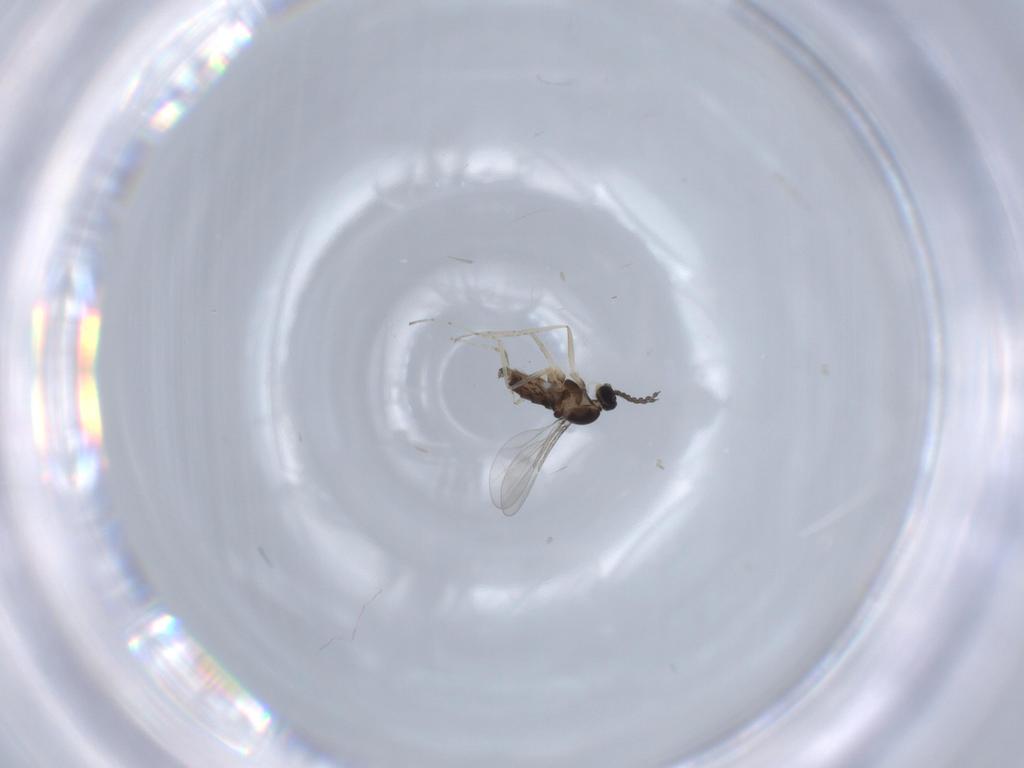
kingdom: Animalia
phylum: Arthropoda
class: Insecta
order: Diptera
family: Cecidomyiidae
